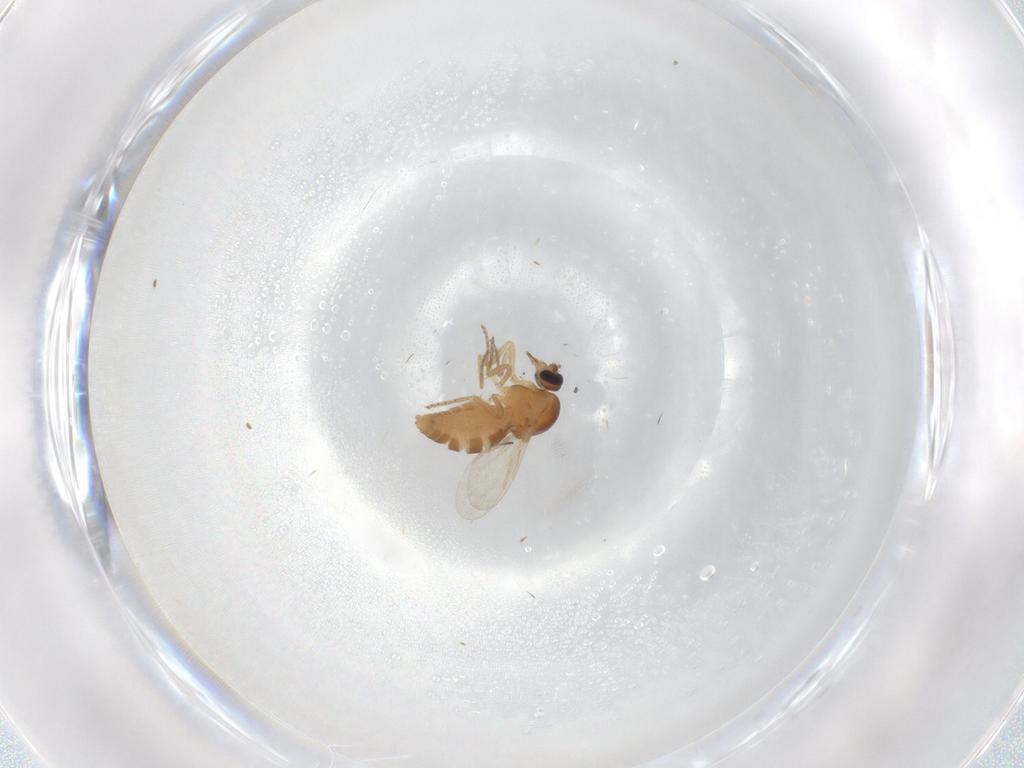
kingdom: Animalia
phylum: Arthropoda
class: Insecta
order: Diptera
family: Ceratopogonidae
